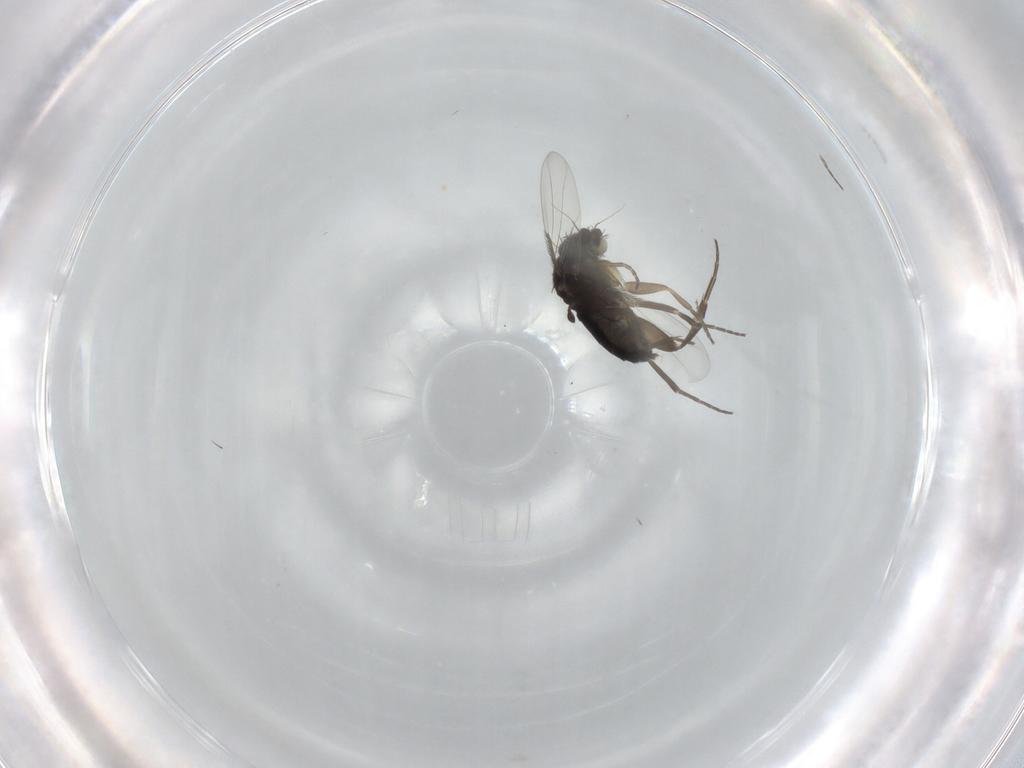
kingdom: Animalia
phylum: Arthropoda
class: Insecta
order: Diptera
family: Phoridae
